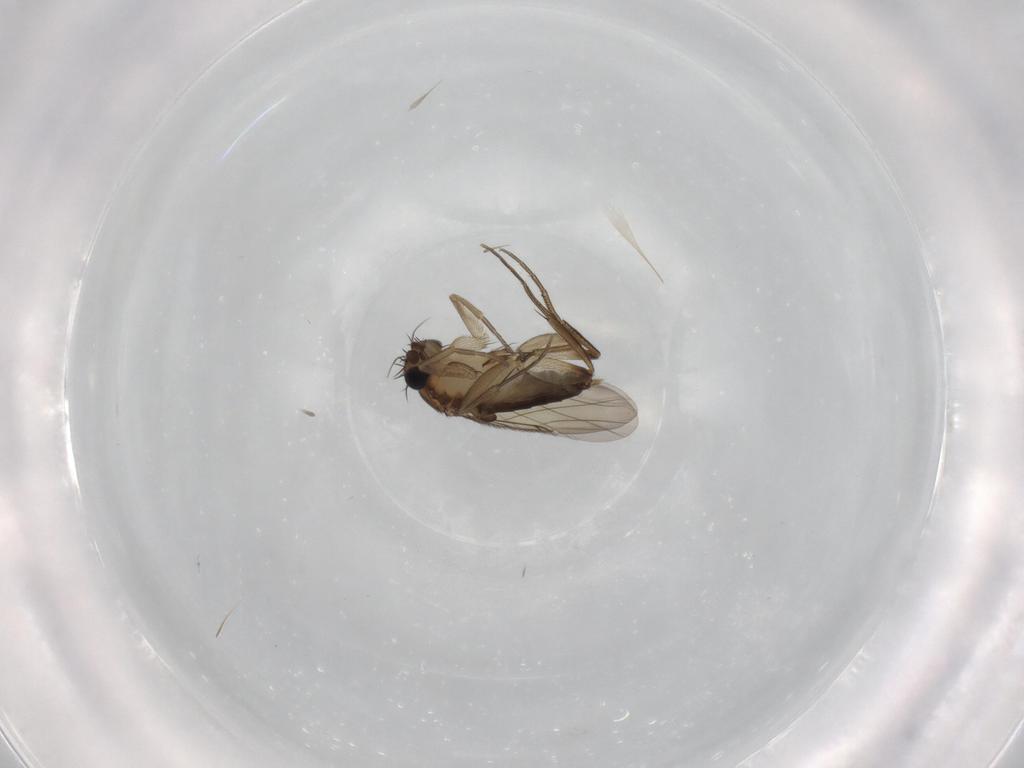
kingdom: Animalia
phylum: Arthropoda
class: Insecta
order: Diptera
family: Phoridae
